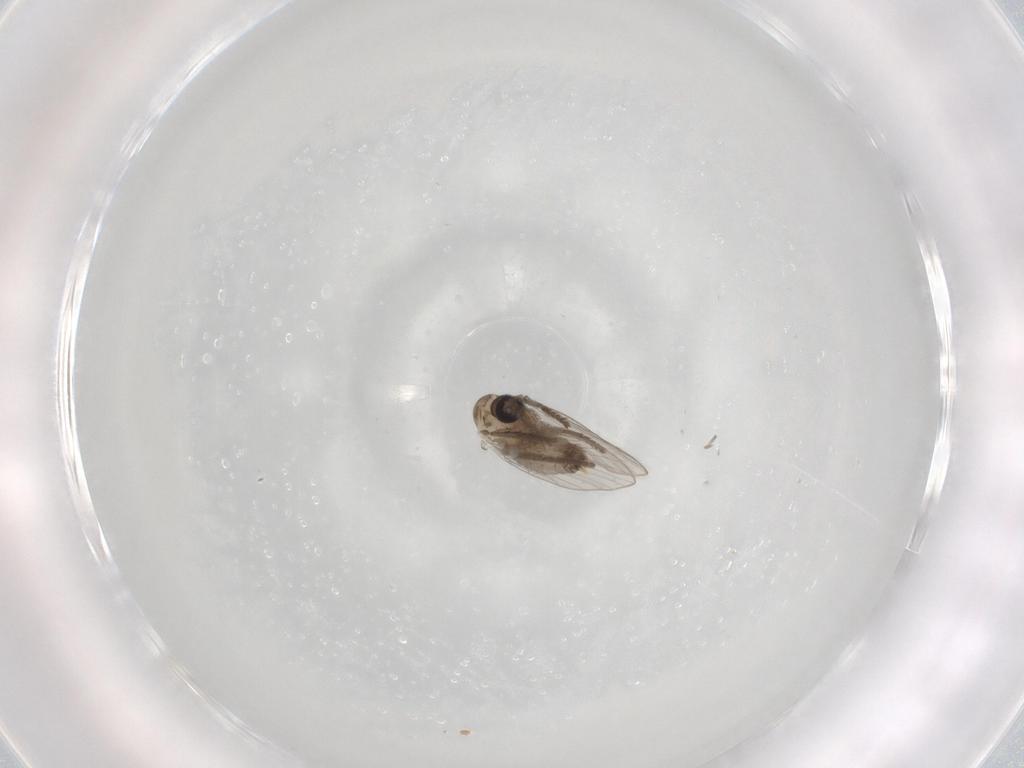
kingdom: Animalia
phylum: Arthropoda
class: Insecta
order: Diptera
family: Psychodidae
